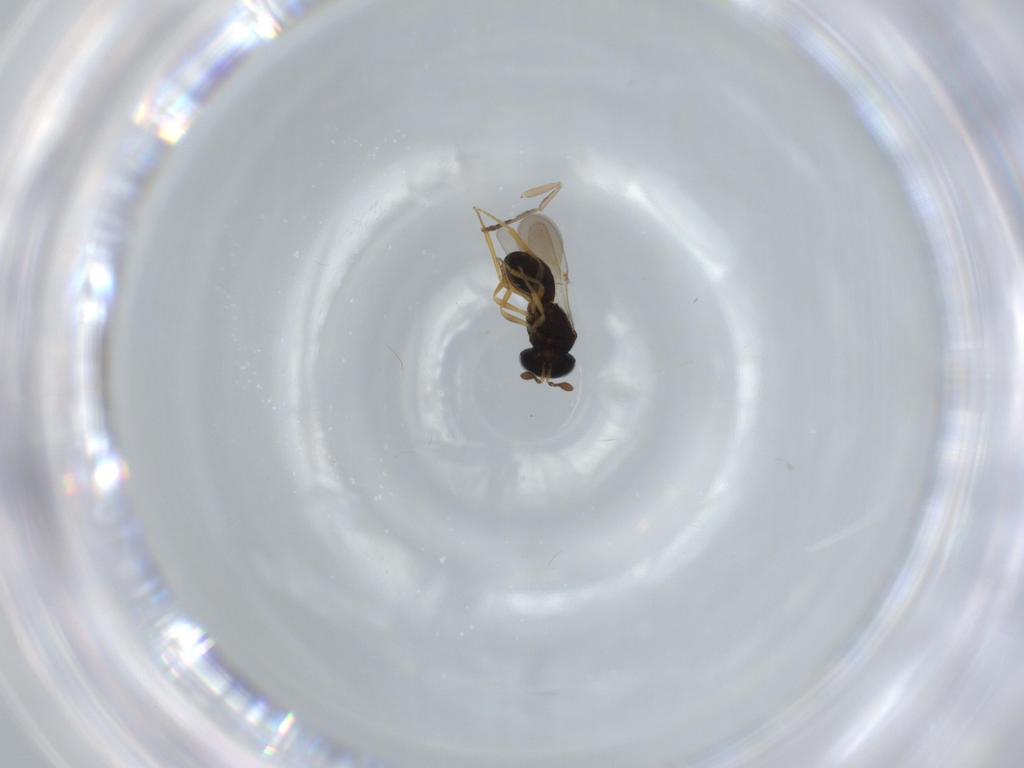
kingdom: Animalia
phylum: Arthropoda
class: Insecta
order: Hymenoptera
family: Scelionidae
